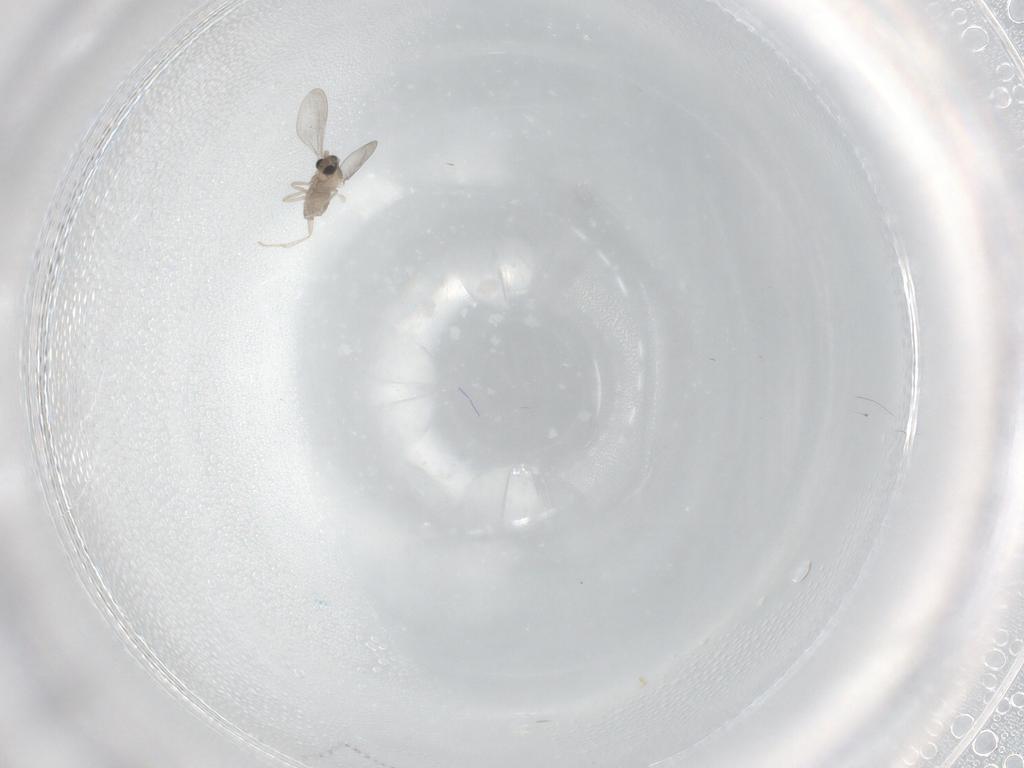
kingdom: Animalia
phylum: Arthropoda
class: Insecta
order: Diptera
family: Cecidomyiidae
